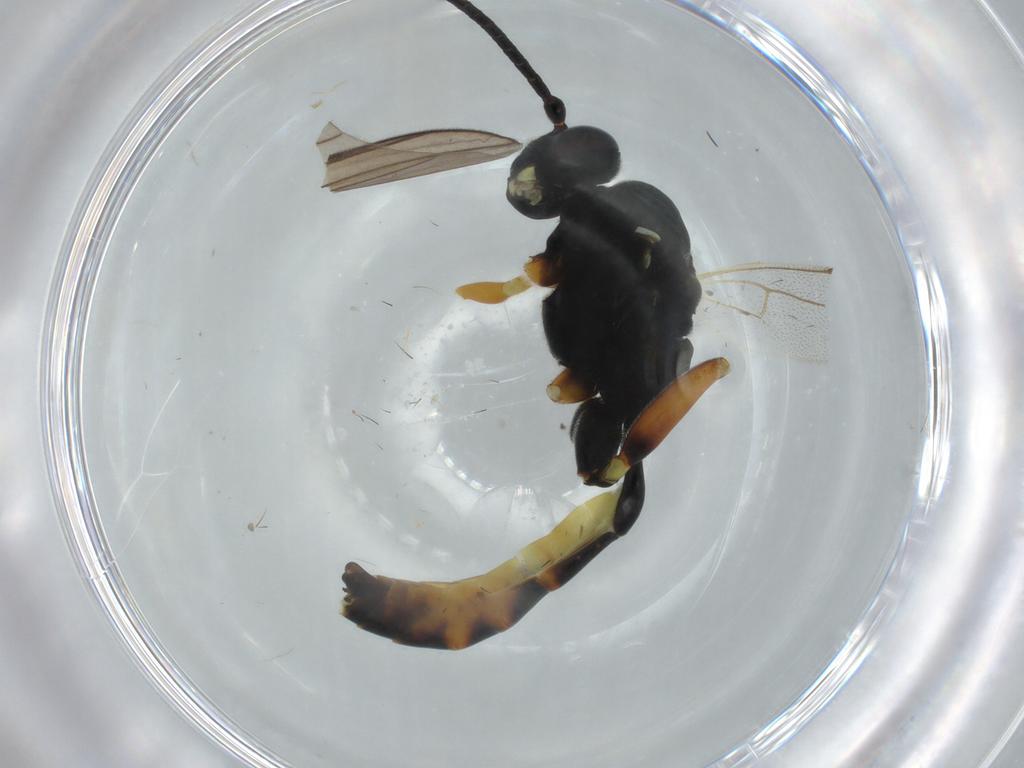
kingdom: Animalia
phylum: Arthropoda
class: Insecta
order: Hymenoptera
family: Ichneumonidae
